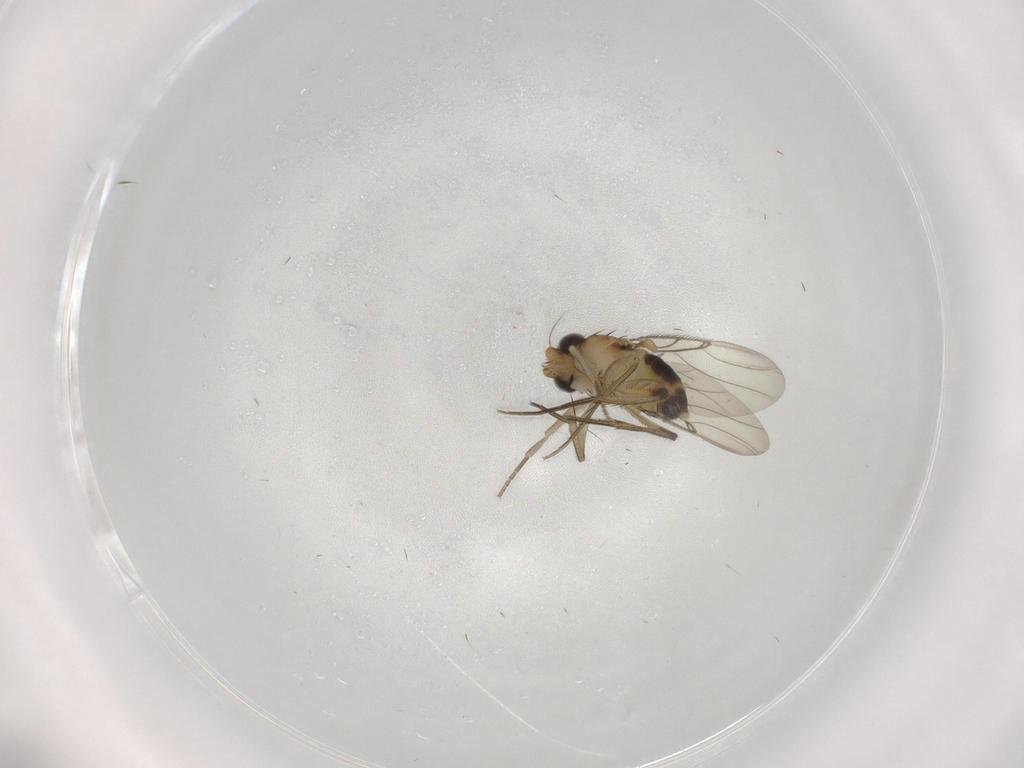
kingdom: Animalia
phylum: Arthropoda
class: Insecta
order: Diptera
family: Phoridae
